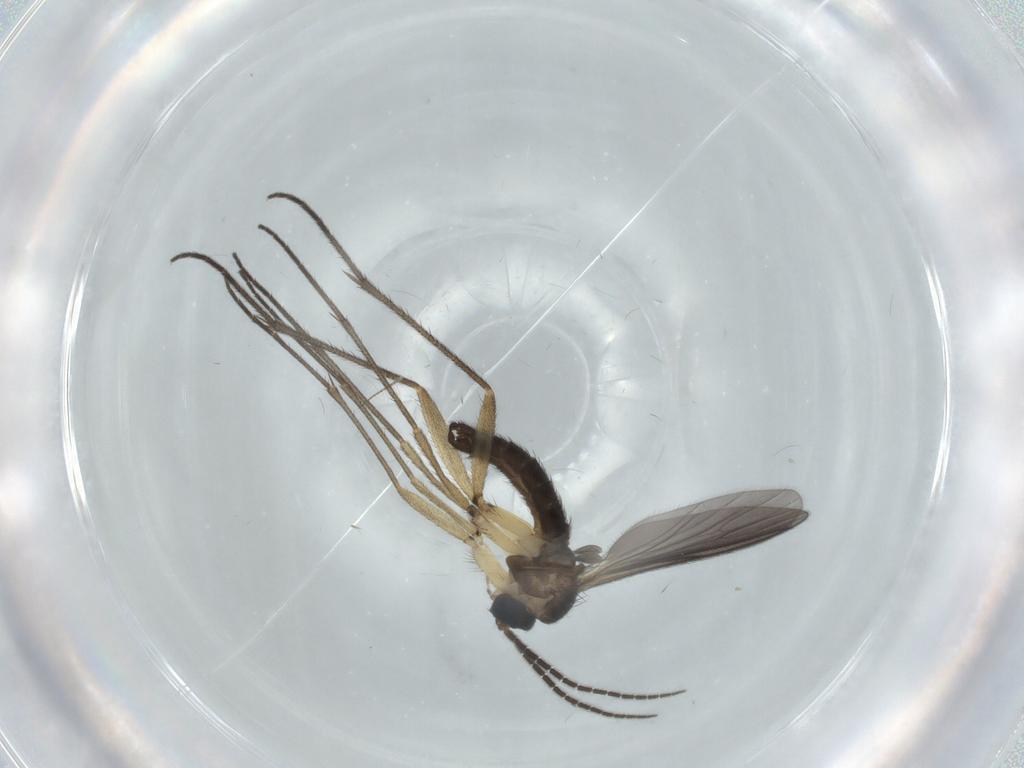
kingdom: Animalia
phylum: Arthropoda
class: Insecta
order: Diptera
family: Sciaridae
